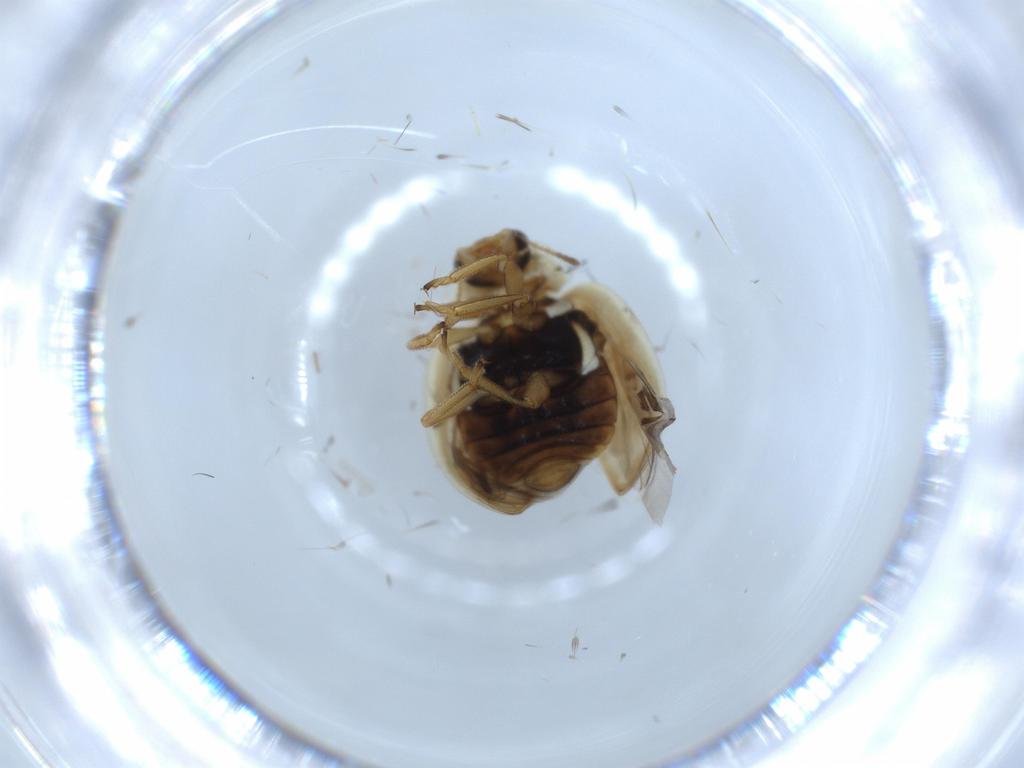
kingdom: Animalia
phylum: Arthropoda
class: Insecta
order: Coleoptera
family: Coccinellidae
